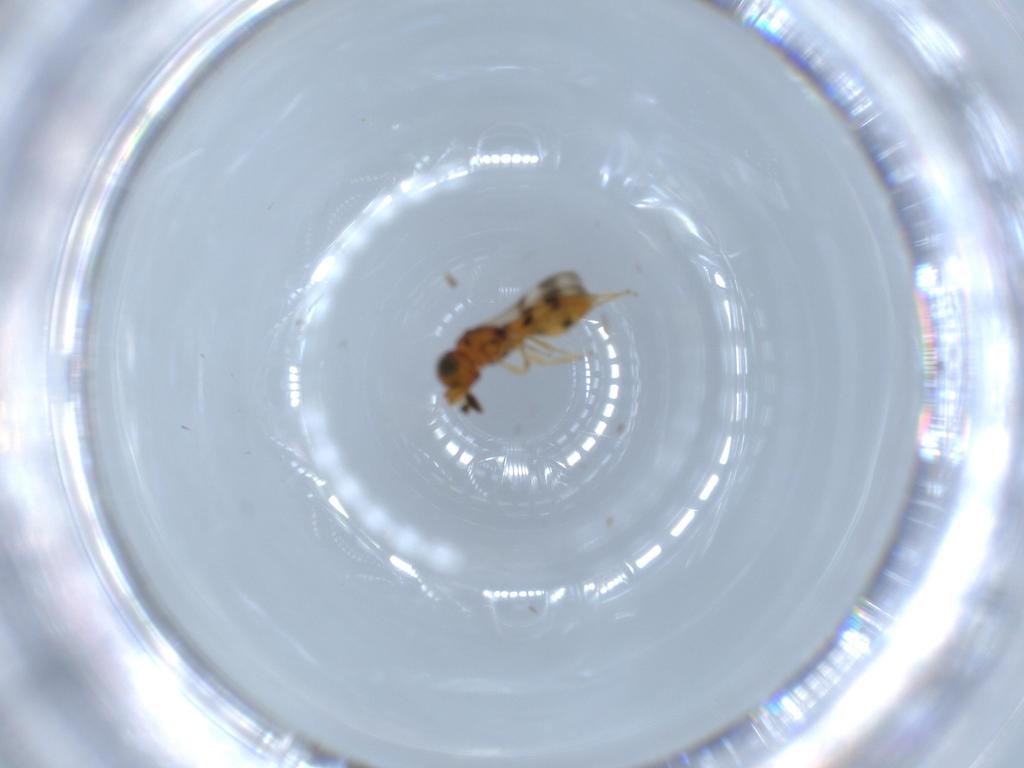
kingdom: Animalia
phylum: Arthropoda
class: Insecta
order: Hymenoptera
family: Scelionidae
